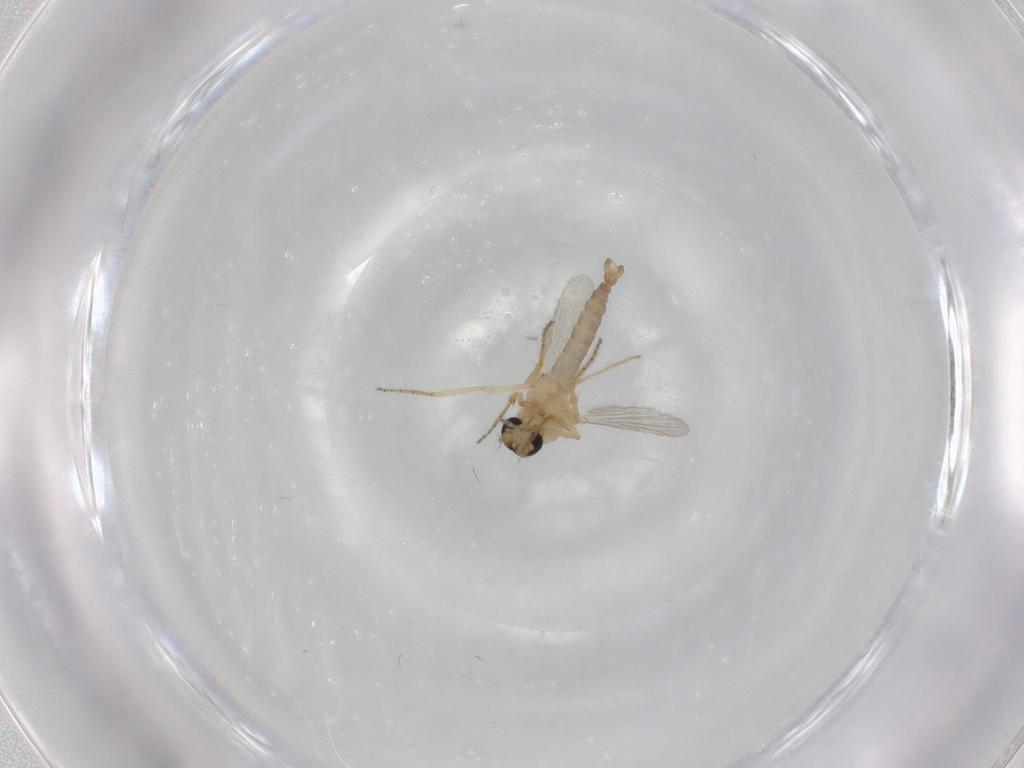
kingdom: Animalia
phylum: Arthropoda
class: Insecta
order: Diptera
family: Ceratopogonidae
